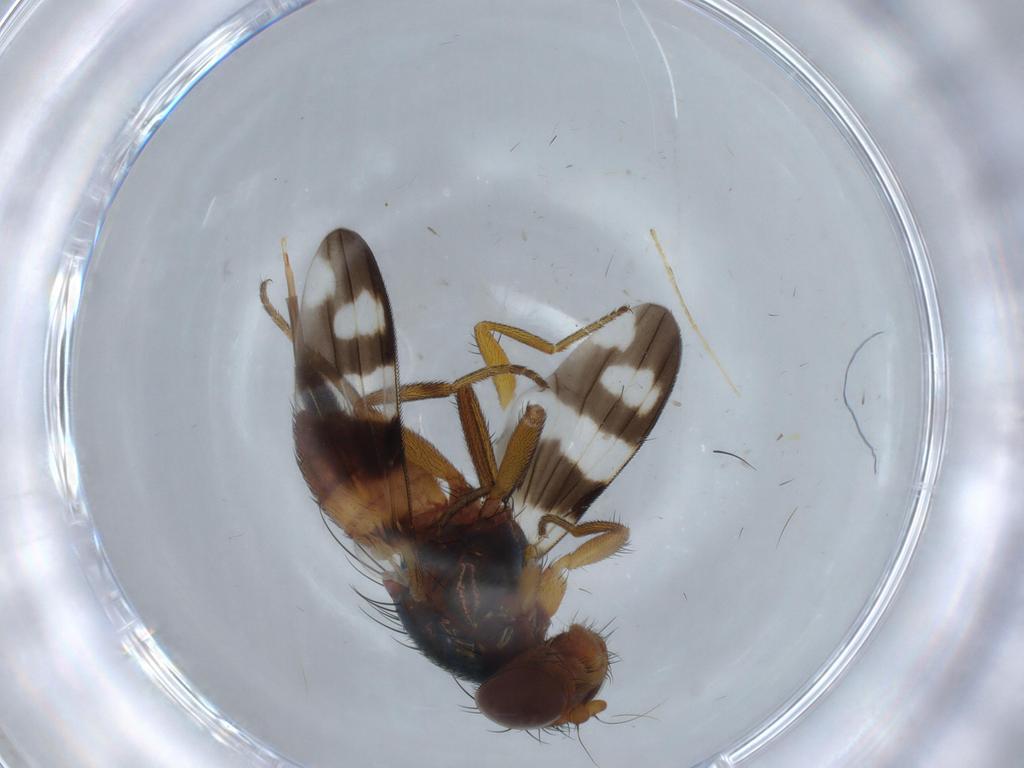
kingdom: Animalia
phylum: Arthropoda
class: Insecta
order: Diptera
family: Ulidiidae
